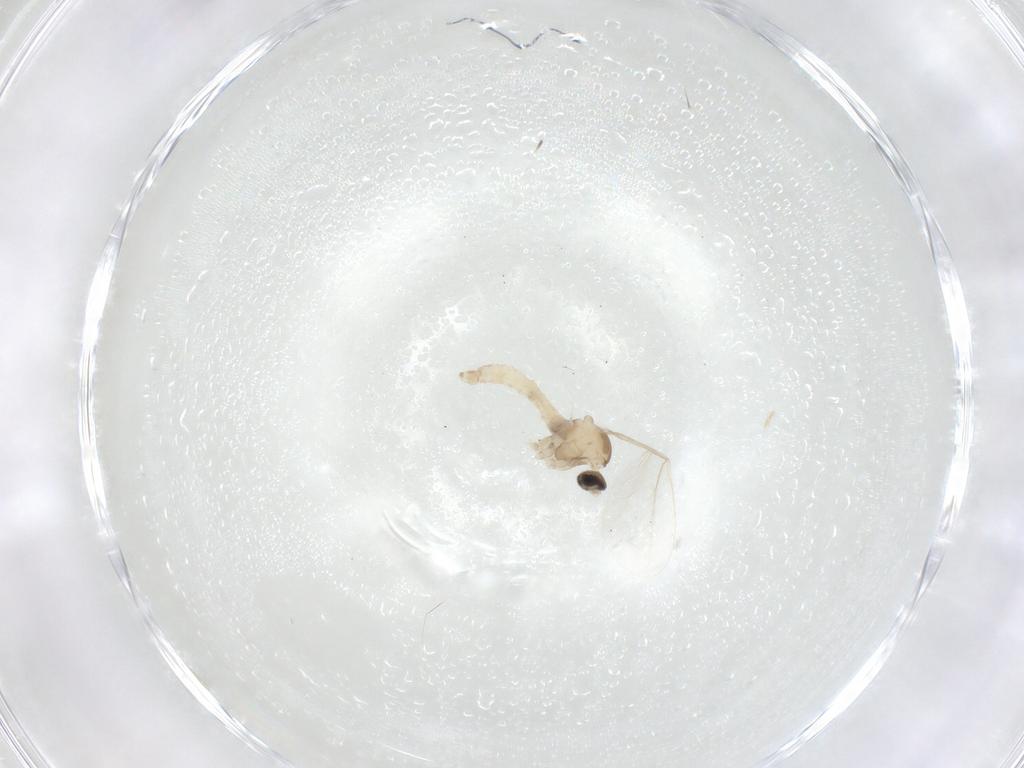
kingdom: Animalia
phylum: Arthropoda
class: Insecta
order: Diptera
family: Cecidomyiidae
